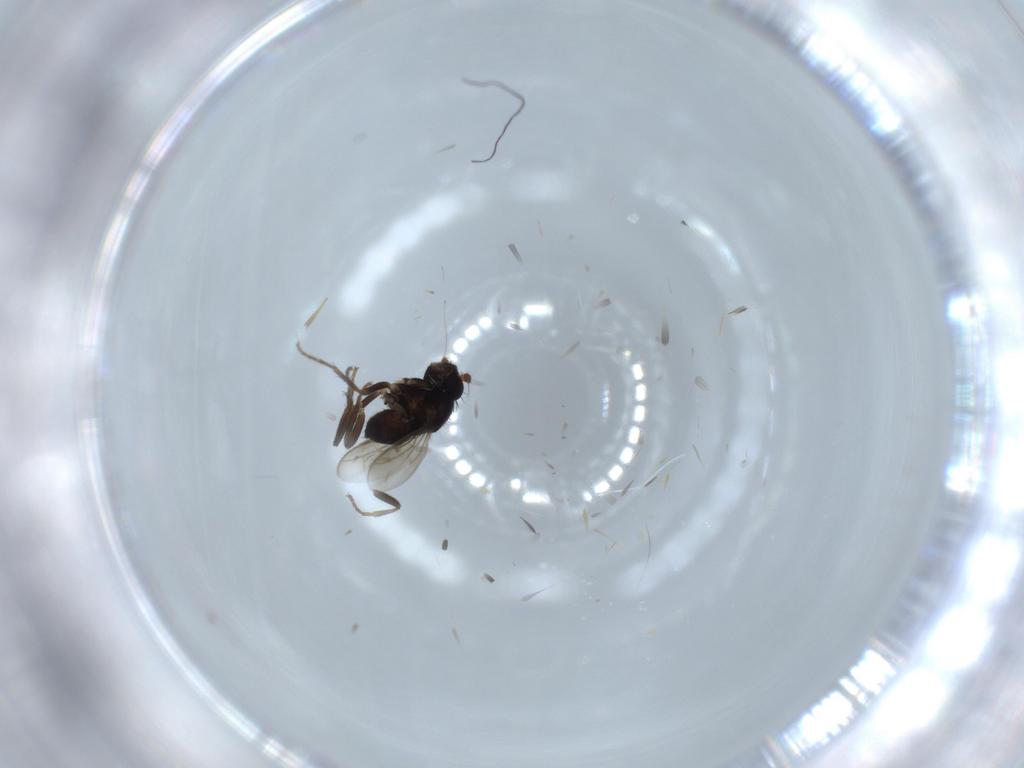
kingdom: Animalia
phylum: Arthropoda
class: Insecta
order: Diptera
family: Sphaeroceridae
